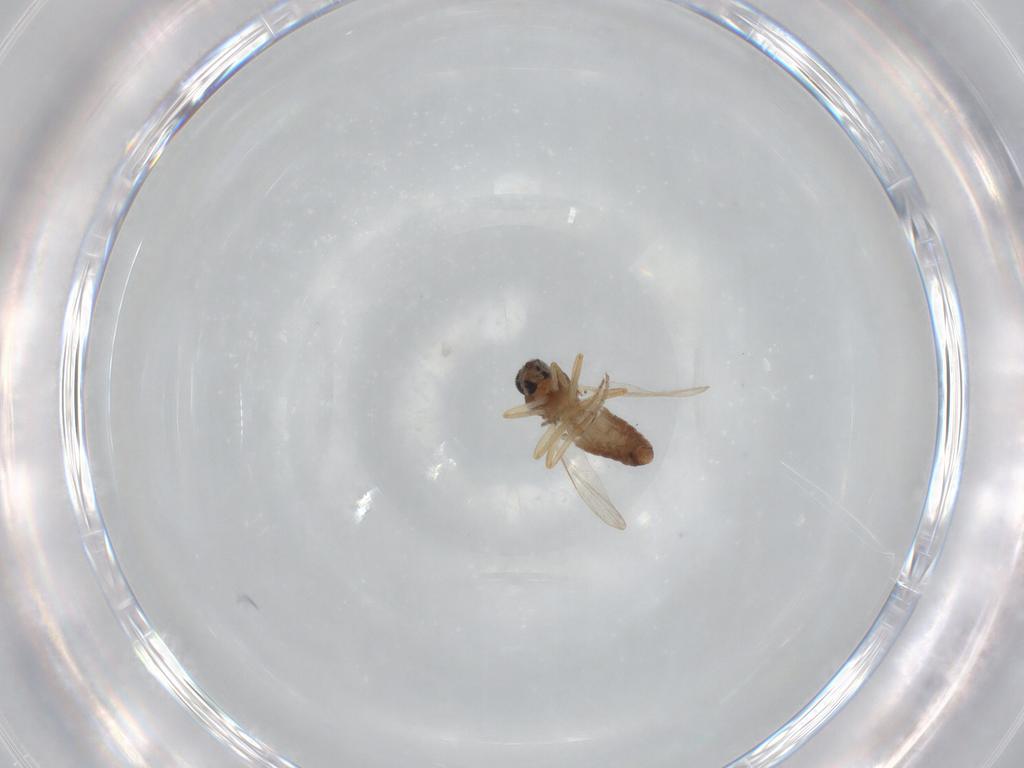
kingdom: Animalia
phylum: Arthropoda
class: Insecta
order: Diptera
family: Ceratopogonidae
